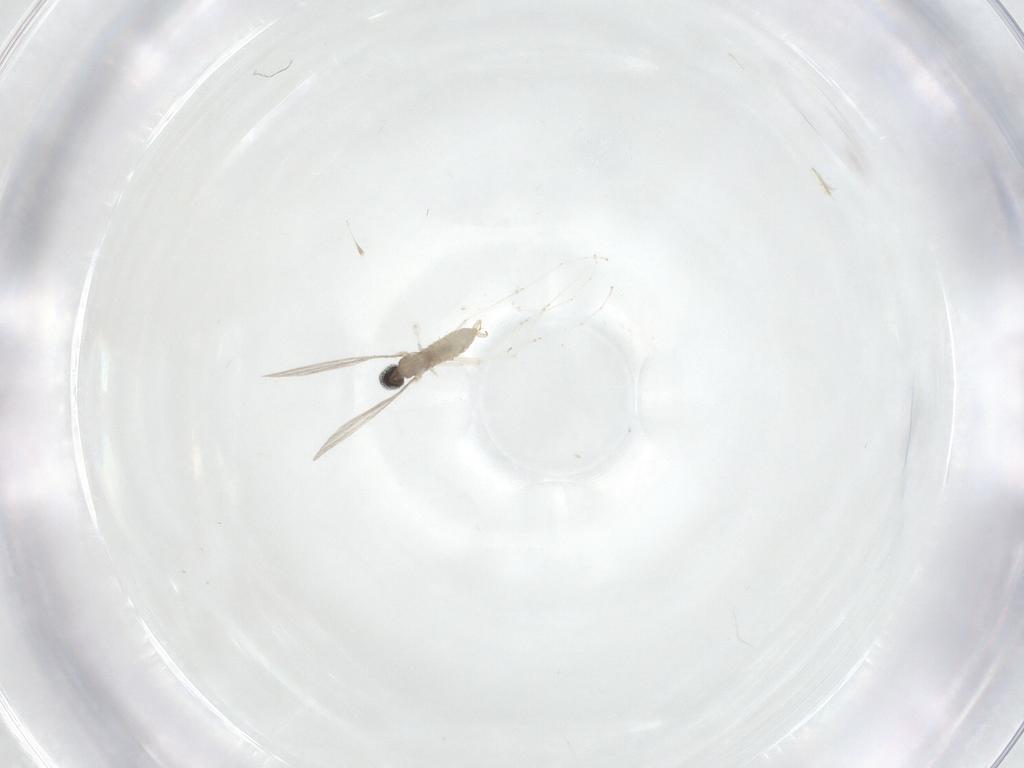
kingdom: Animalia
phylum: Arthropoda
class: Insecta
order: Diptera
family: Cecidomyiidae
